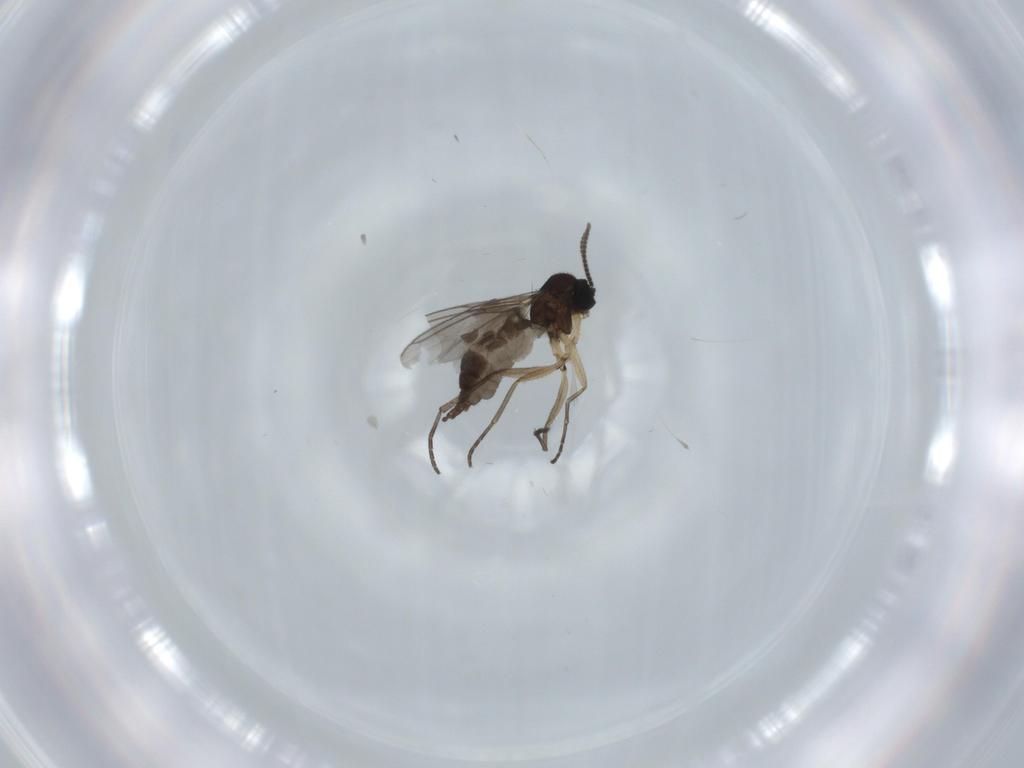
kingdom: Animalia
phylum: Arthropoda
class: Insecta
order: Diptera
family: Sciaridae
